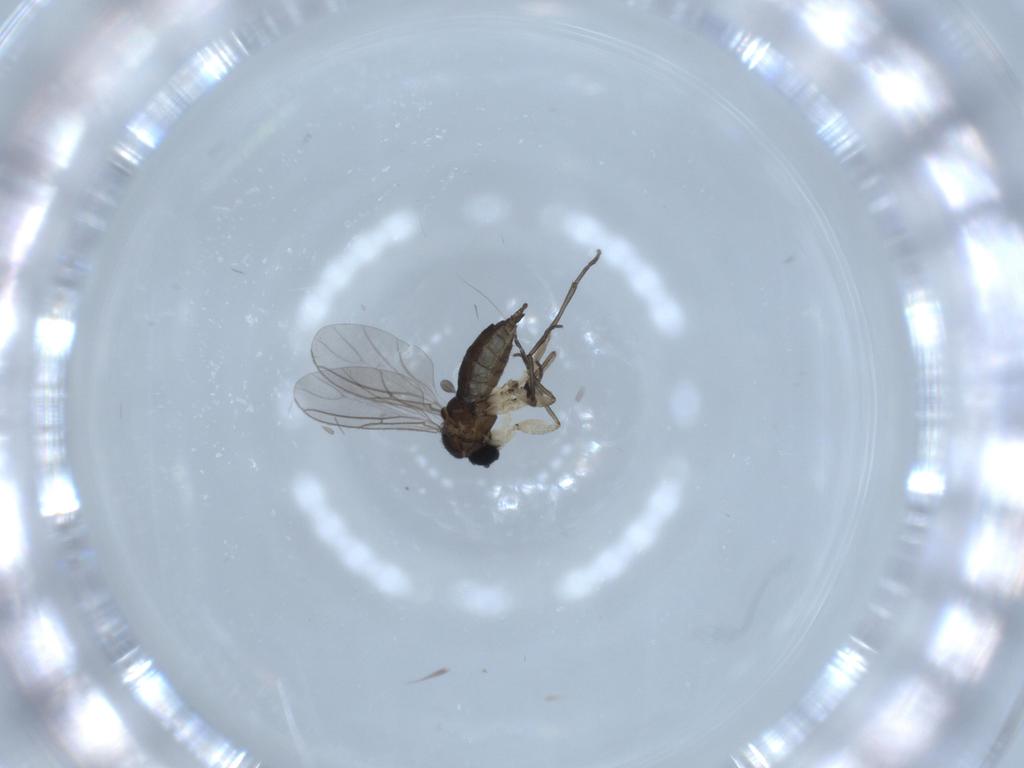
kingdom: Animalia
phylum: Arthropoda
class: Insecta
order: Diptera
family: Sciaridae
